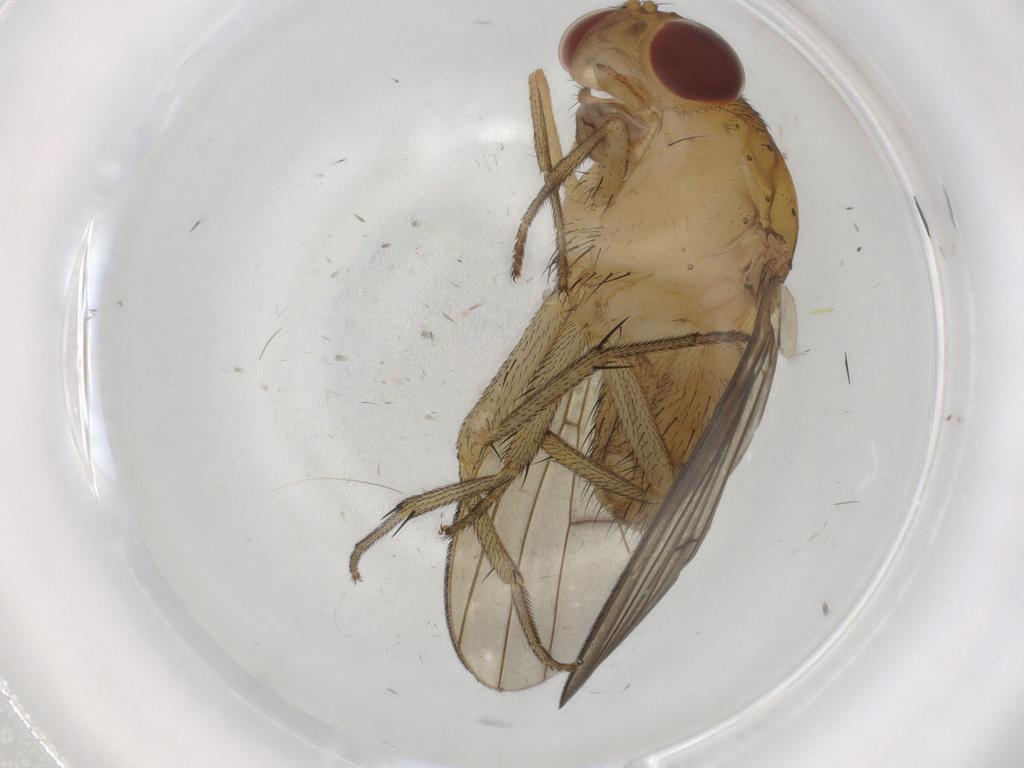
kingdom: Animalia
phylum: Arthropoda
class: Insecta
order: Diptera
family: Cecidomyiidae
